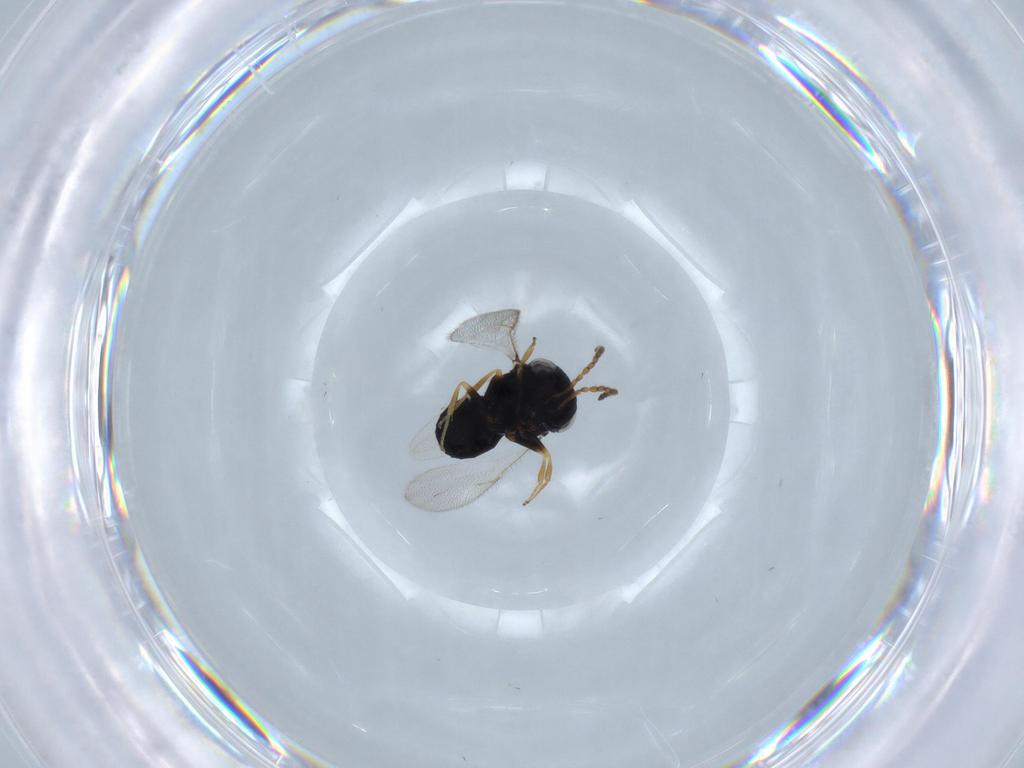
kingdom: Animalia
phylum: Arthropoda
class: Insecta
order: Hymenoptera
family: Scelionidae
